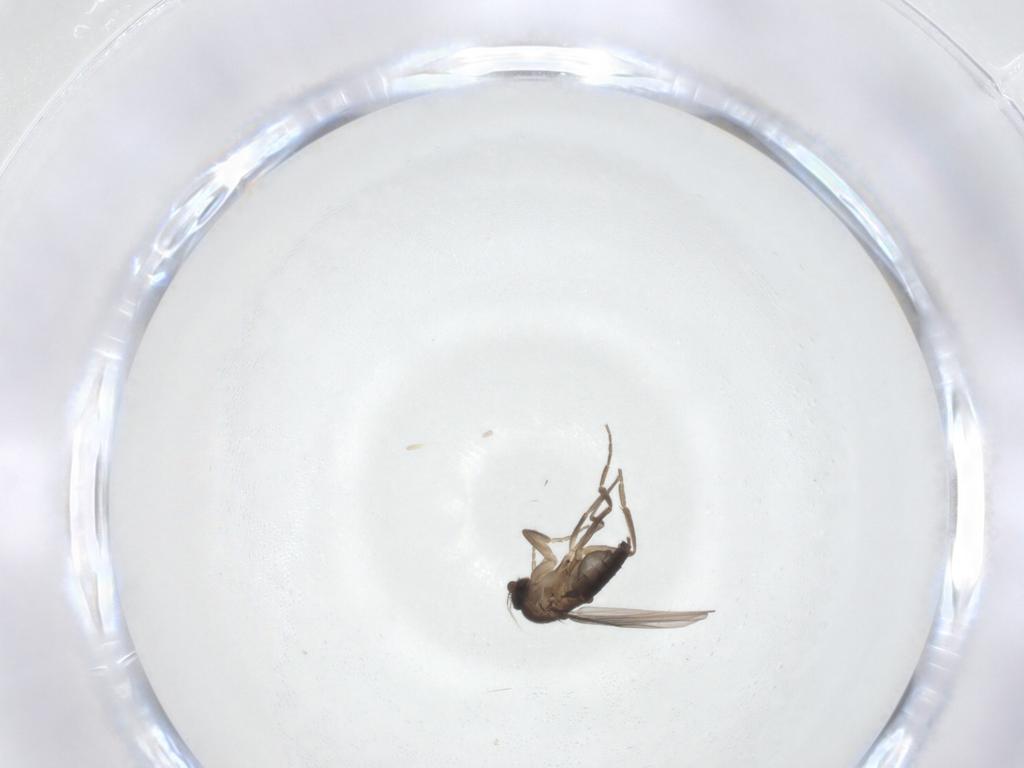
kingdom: Animalia
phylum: Arthropoda
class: Insecta
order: Diptera
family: Phoridae
